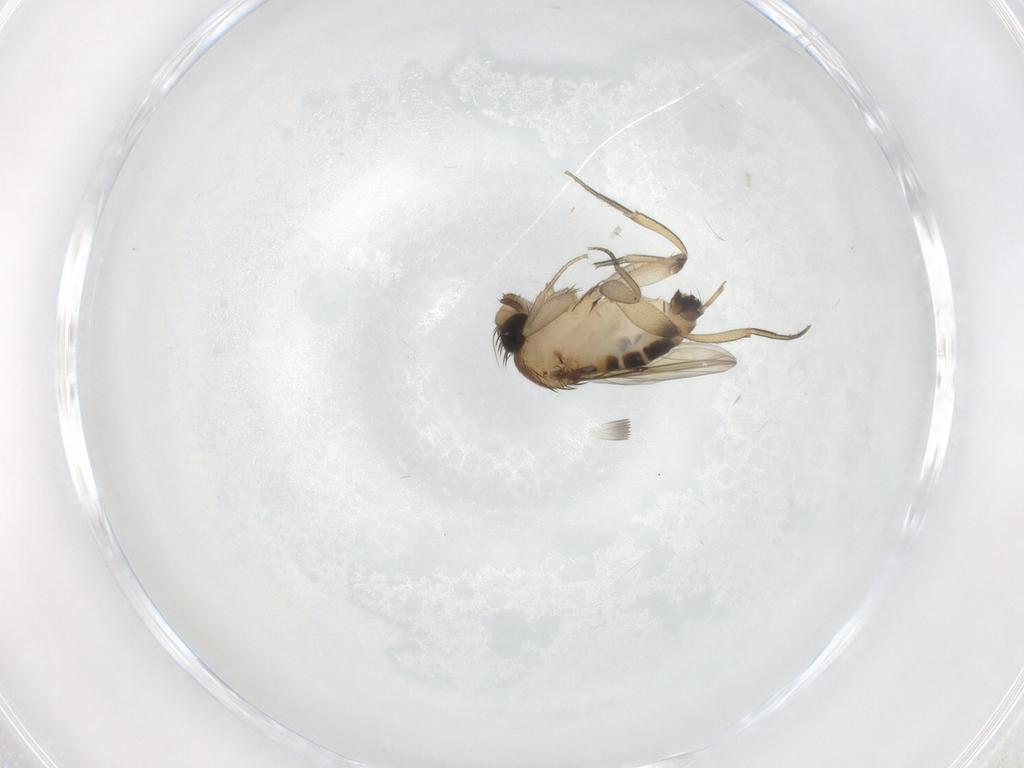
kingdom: Animalia
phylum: Arthropoda
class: Insecta
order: Diptera
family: Phoridae
